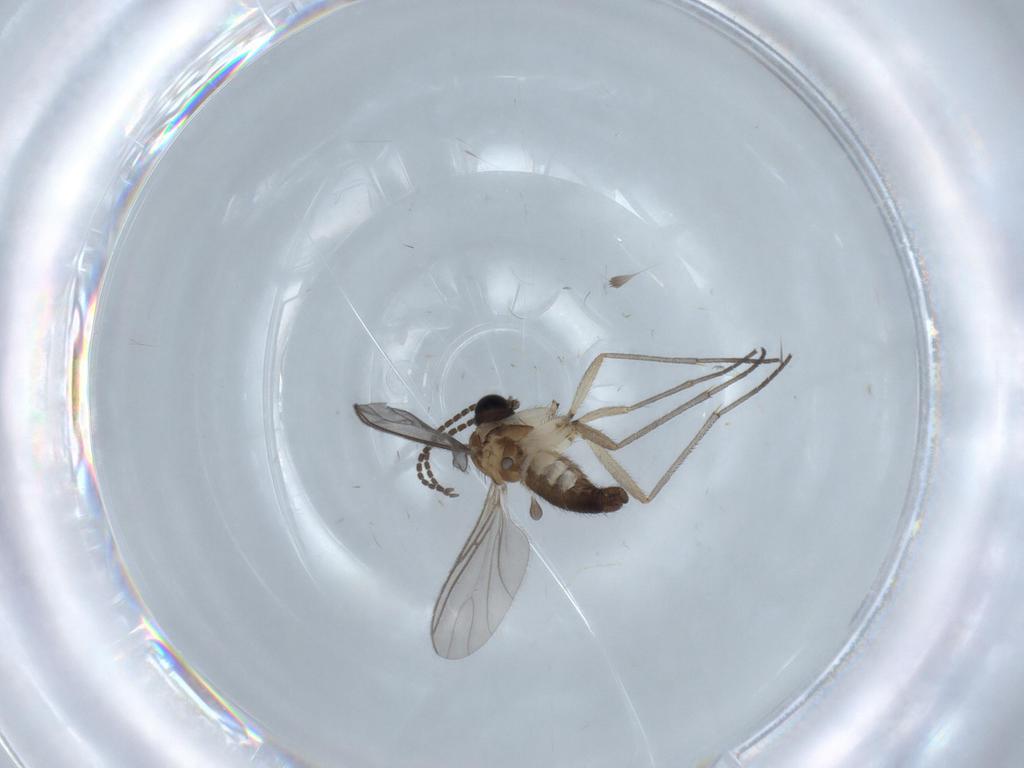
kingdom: Animalia
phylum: Arthropoda
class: Insecta
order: Diptera
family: Sciaridae
